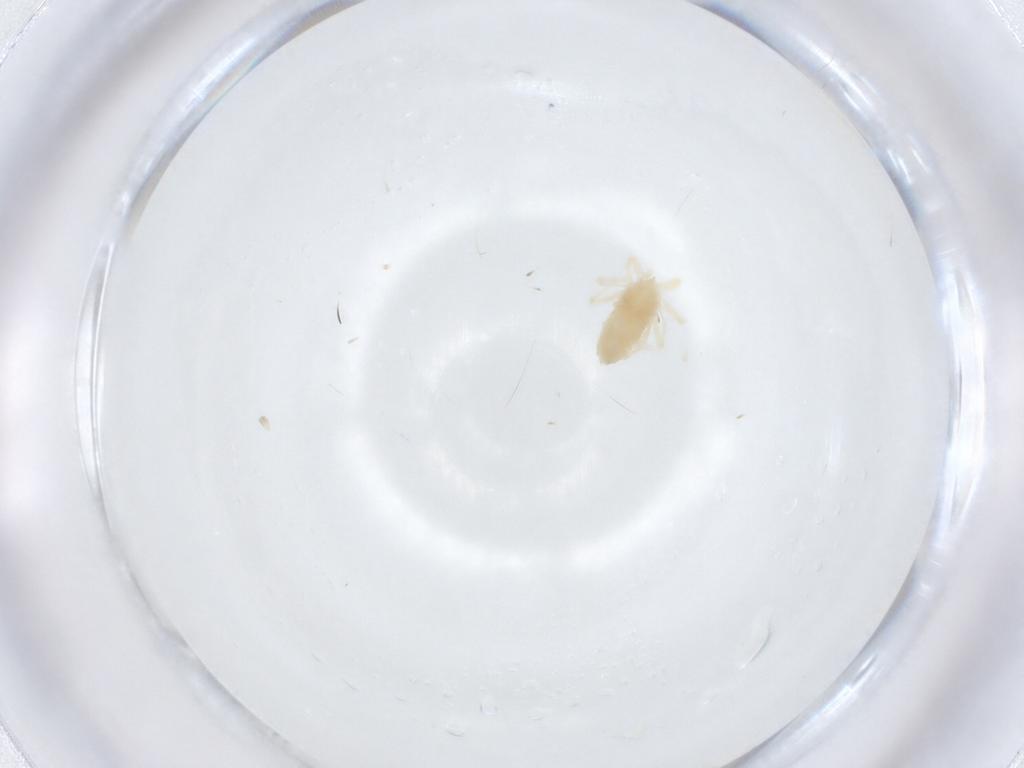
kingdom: Animalia
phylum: Arthropoda
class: Arachnida
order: Trombidiformes
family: Anystidae
